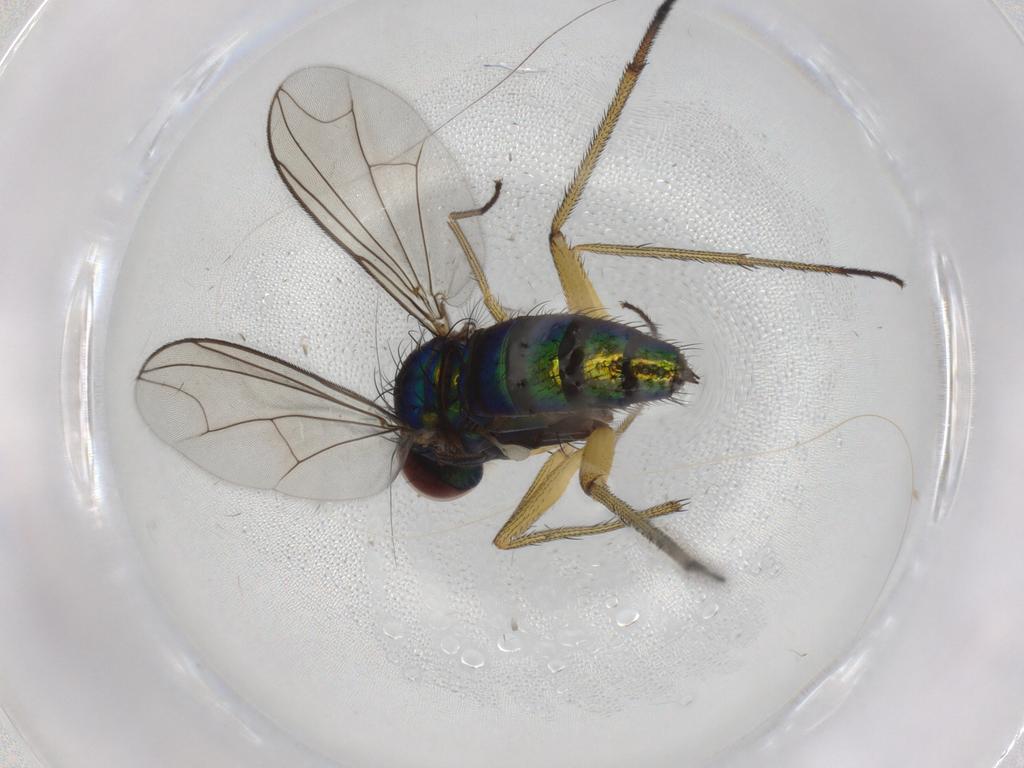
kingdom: Animalia
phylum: Arthropoda
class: Insecta
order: Diptera
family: Dolichopodidae
